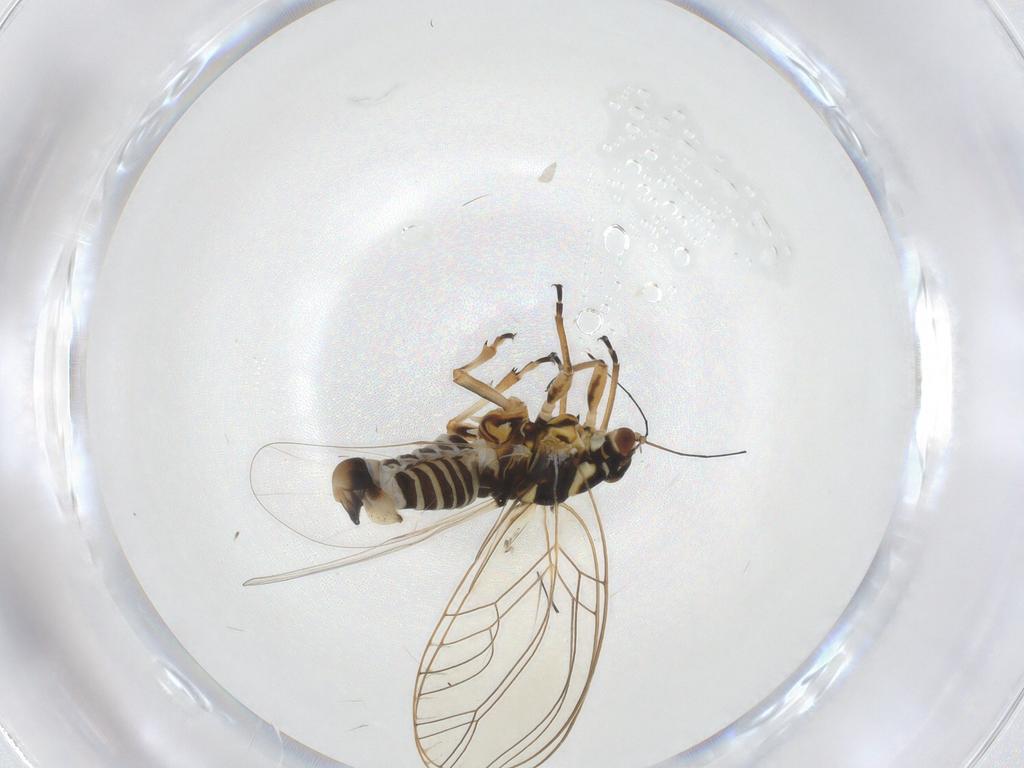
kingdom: Animalia
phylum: Arthropoda
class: Insecta
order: Hemiptera
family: Triozidae
